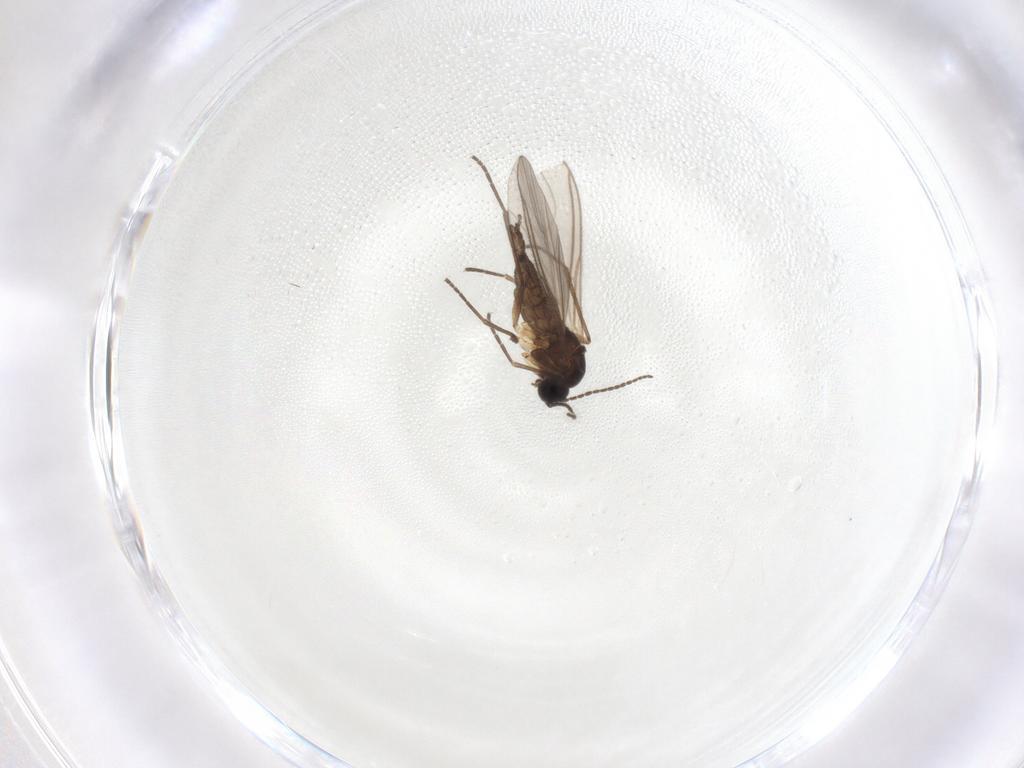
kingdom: Animalia
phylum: Arthropoda
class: Insecta
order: Diptera
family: Sciaridae
